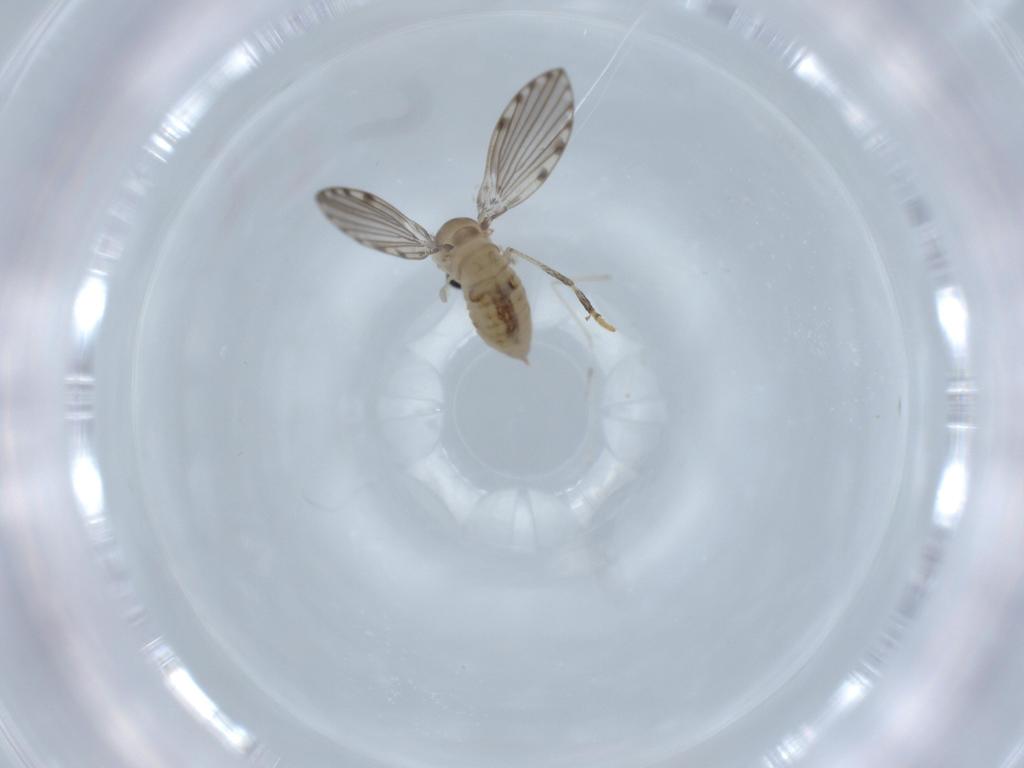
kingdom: Animalia
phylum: Arthropoda
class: Insecta
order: Diptera
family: Psychodidae
